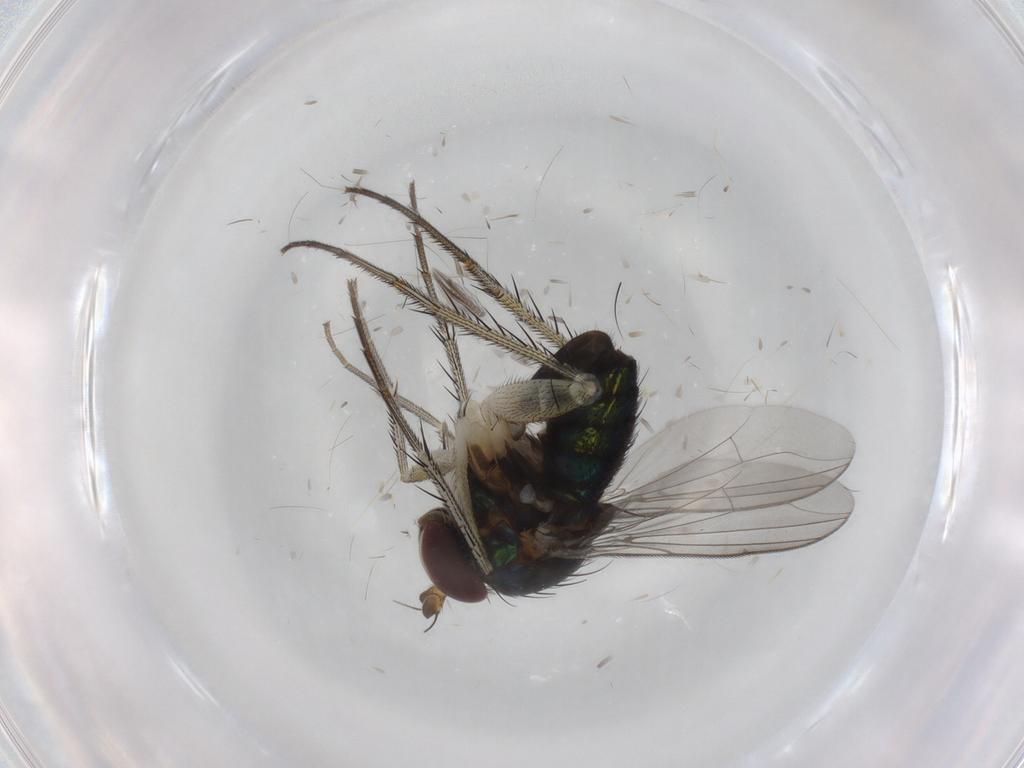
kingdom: Animalia
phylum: Arthropoda
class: Insecta
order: Diptera
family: Dolichopodidae
